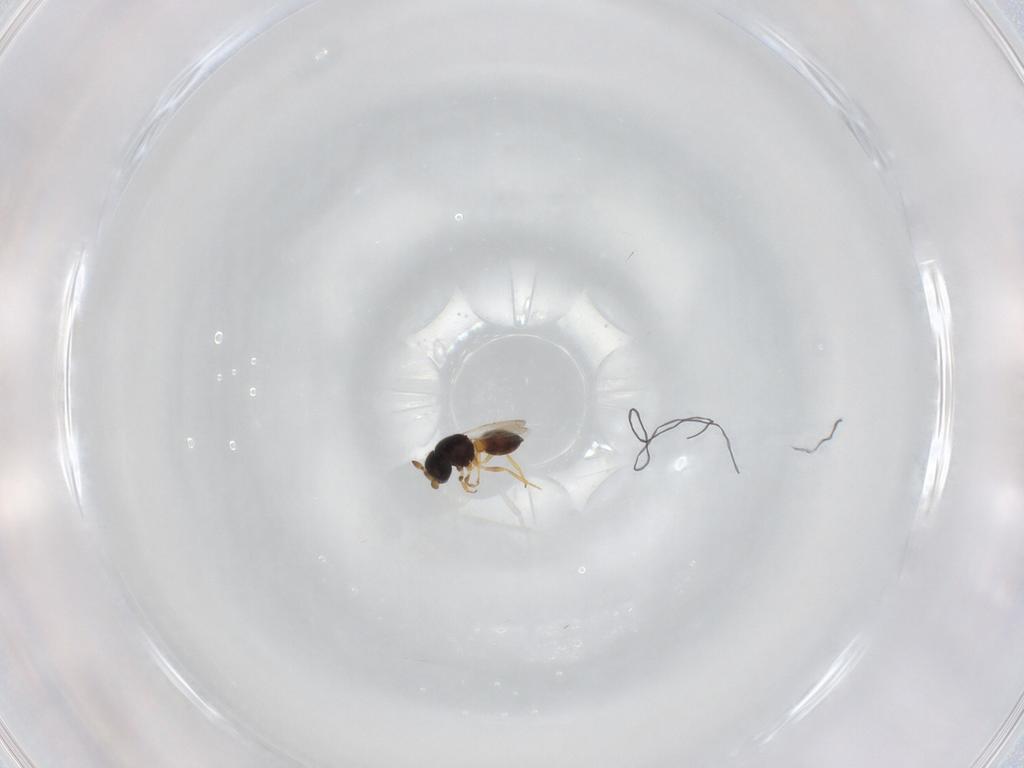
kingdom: Animalia
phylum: Arthropoda
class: Insecta
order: Hymenoptera
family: Scelionidae
